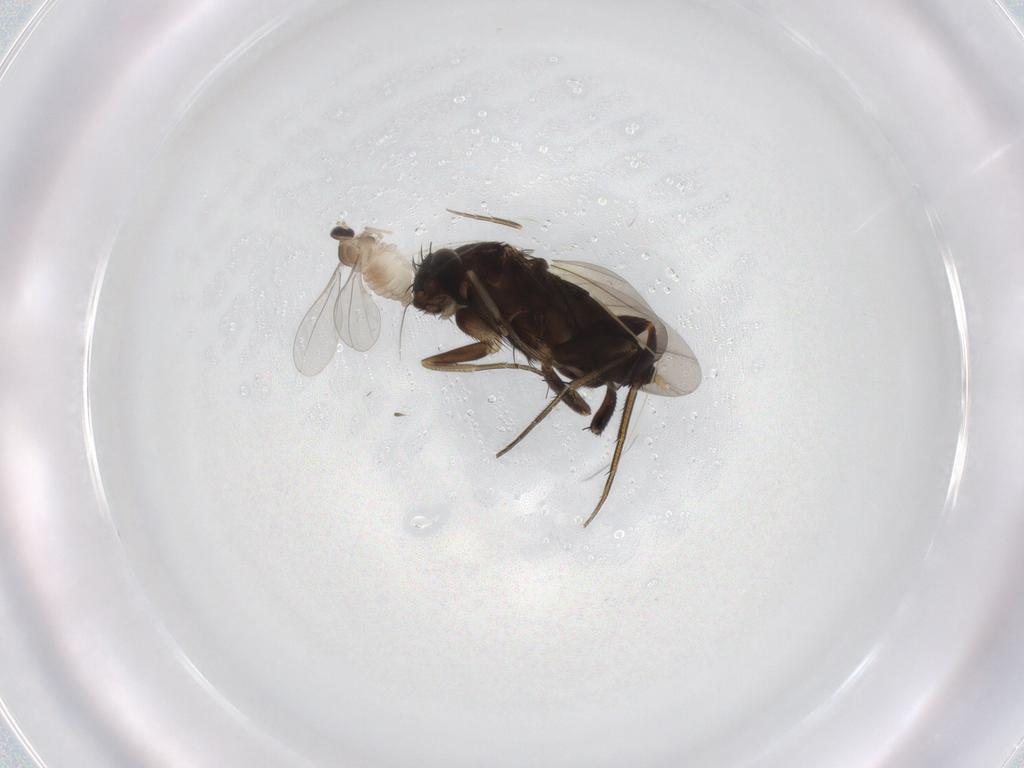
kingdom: Animalia
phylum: Arthropoda
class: Insecta
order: Diptera
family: Phoridae
